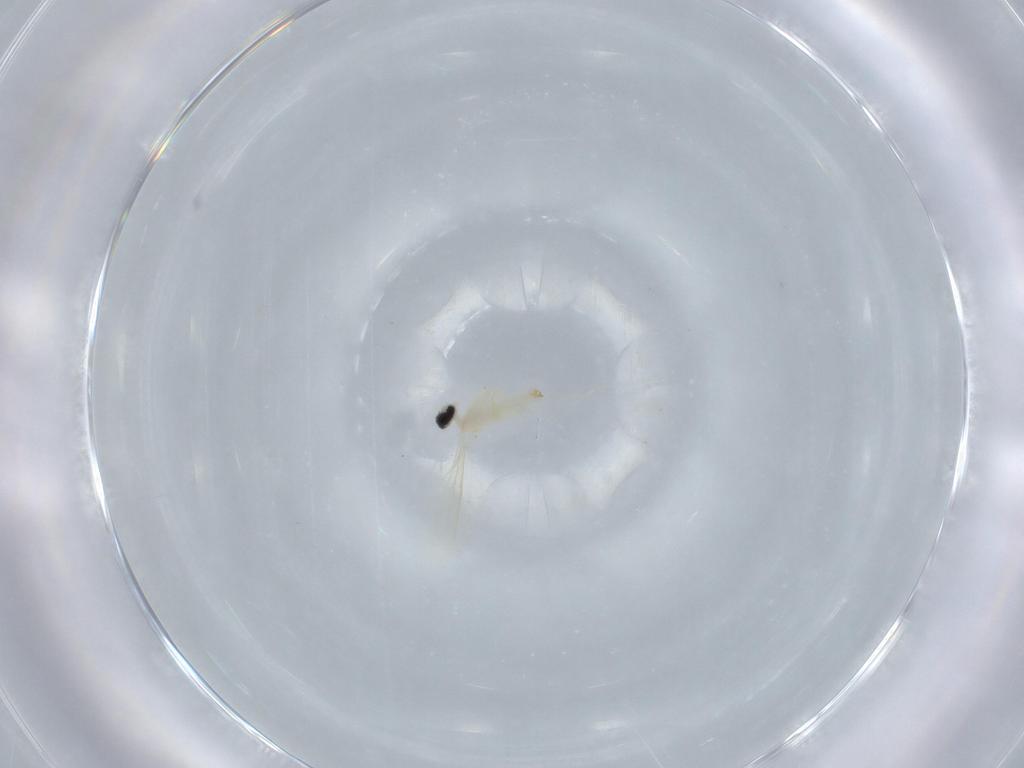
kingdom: Animalia
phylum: Arthropoda
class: Insecta
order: Diptera
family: Cecidomyiidae
